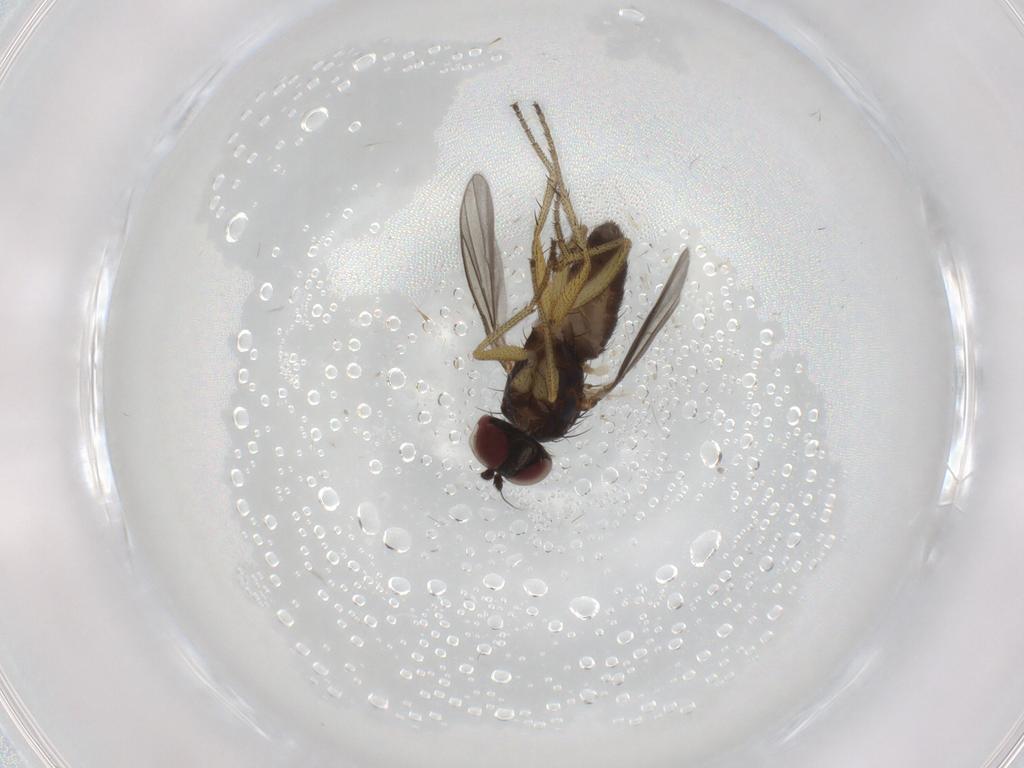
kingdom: Animalia
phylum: Arthropoda
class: Insecta
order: Diptera
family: Dolichopodidae
